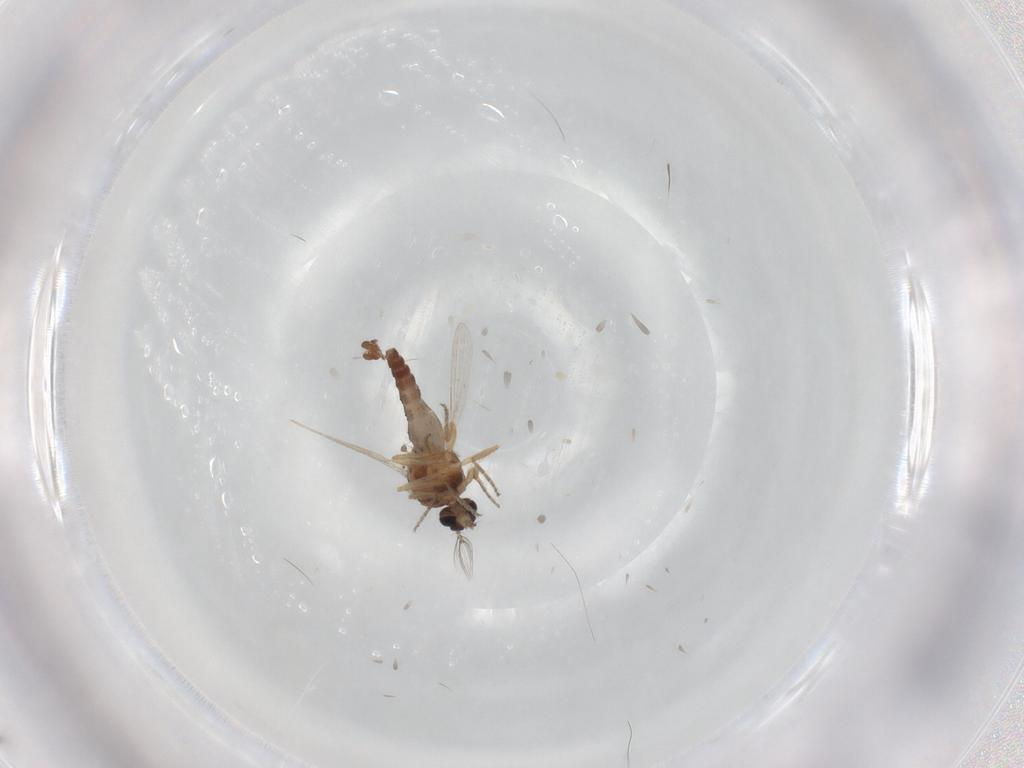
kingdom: Animalia
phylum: Arthropoda
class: Insecta
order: Diptera
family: Ceratopogonidae
